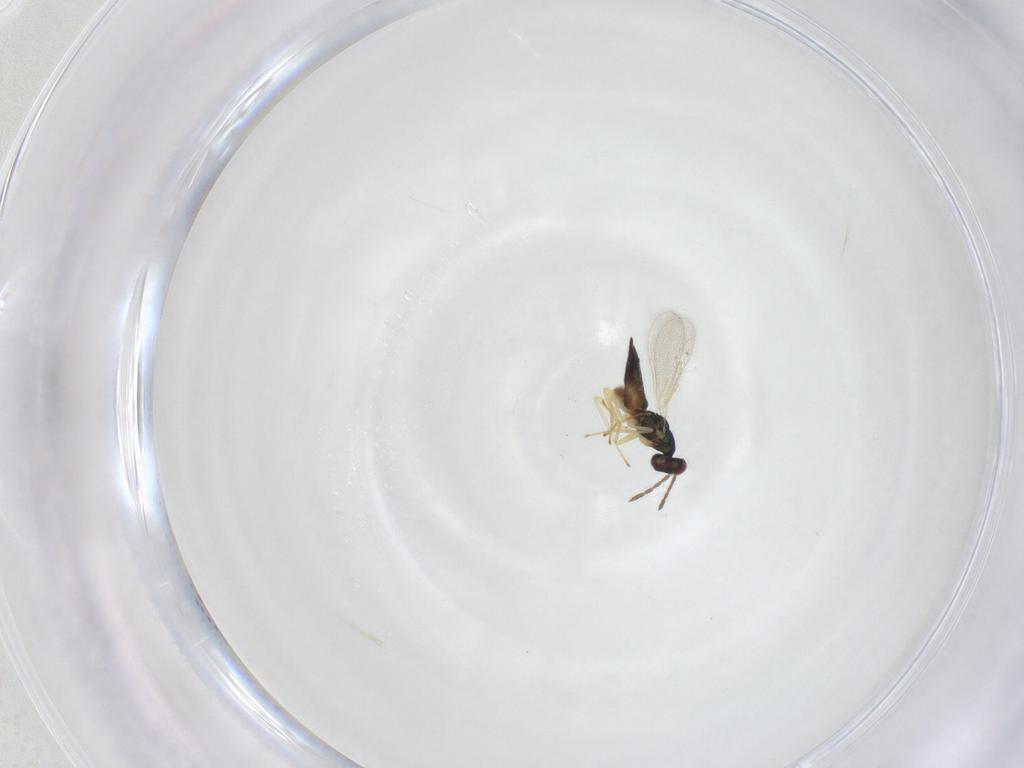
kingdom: Animalia
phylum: Arthropoda
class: Insecta
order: Hymenoptera
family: Eulophidae
